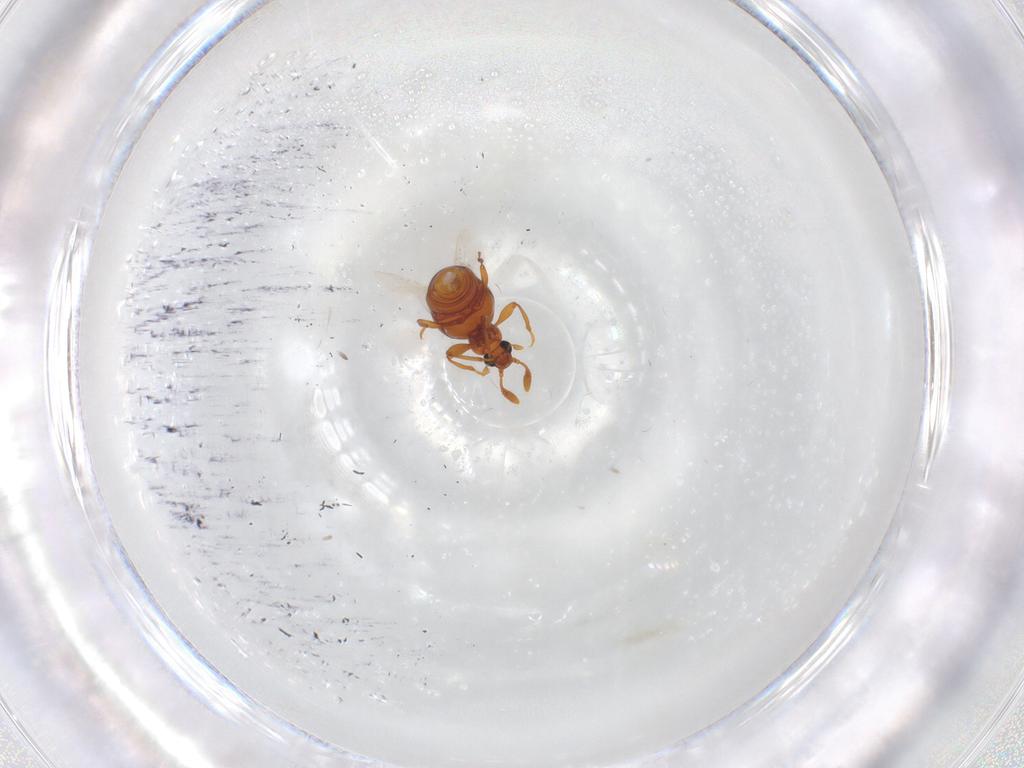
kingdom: Animalia
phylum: Arthropoda
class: Insecta
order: Coleoptera
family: Staphylinidae
